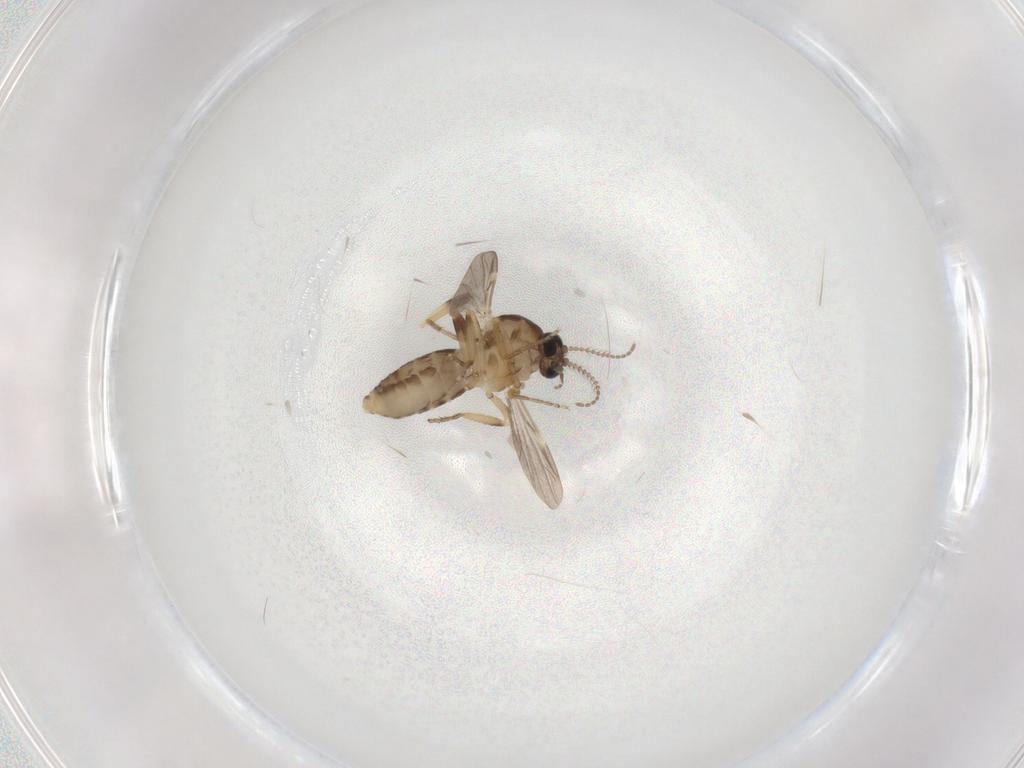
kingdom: Animalia
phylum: Arthropoda
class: Insecta
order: Diptera
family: Ceratopogonidae
